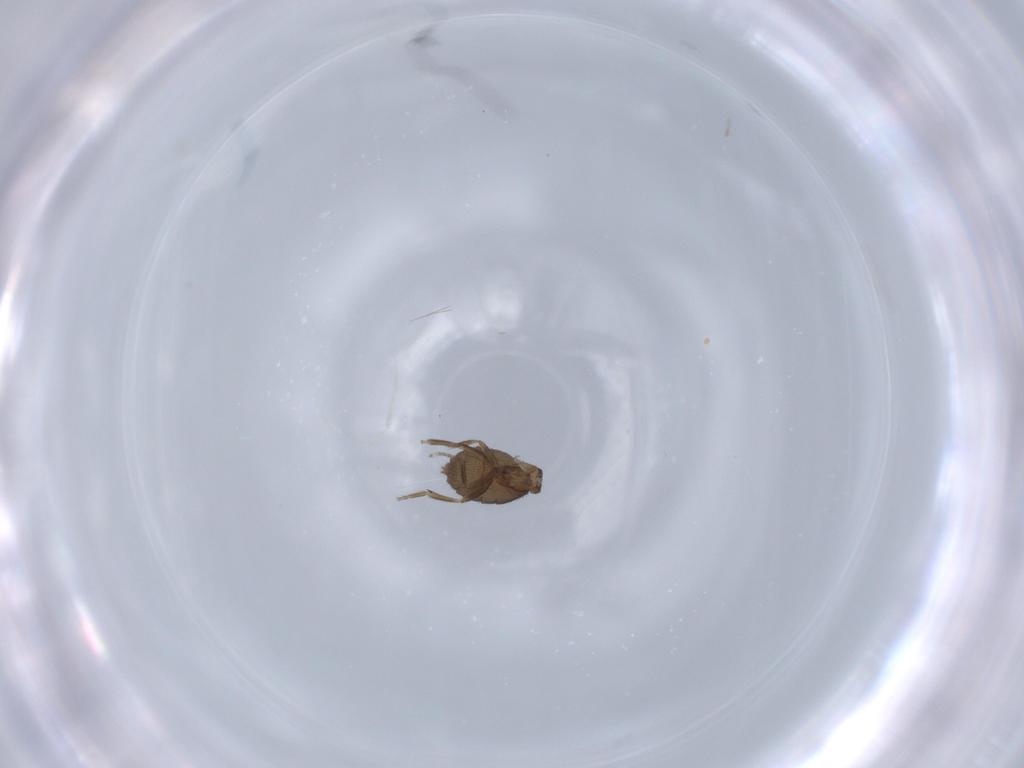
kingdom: Animalia
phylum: Arthropoda
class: Insecta
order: Diptera
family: Phoridae
